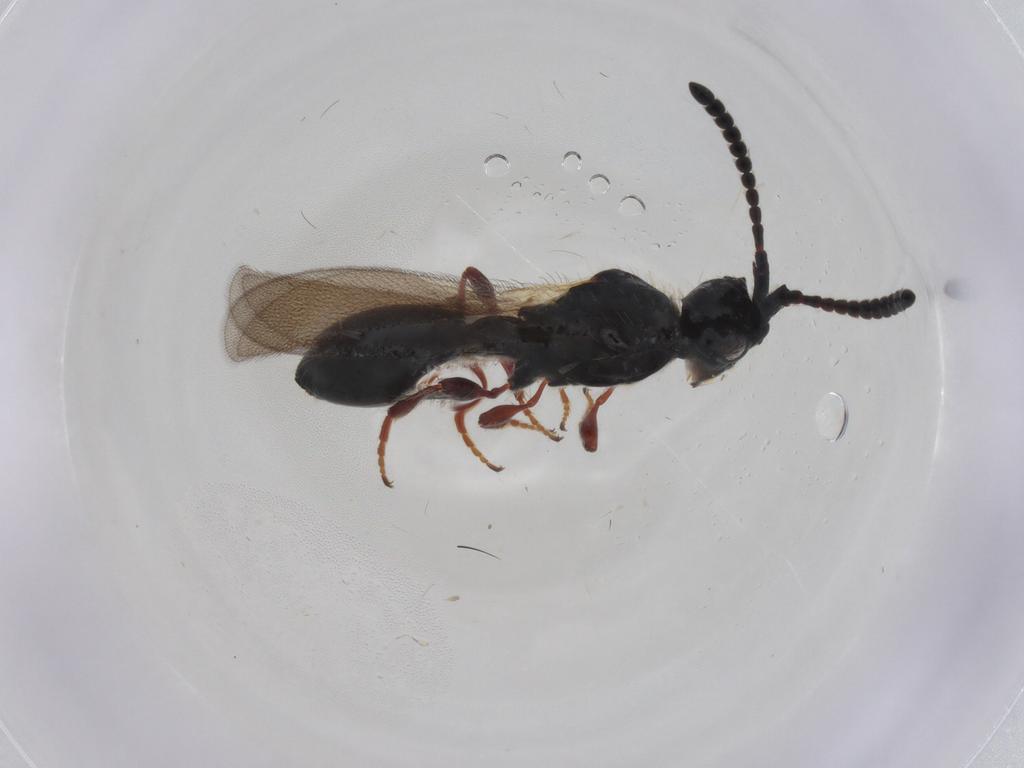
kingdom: Animalia
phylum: Arthropoda
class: Insecta
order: Hymenoptera
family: Diapriidae
